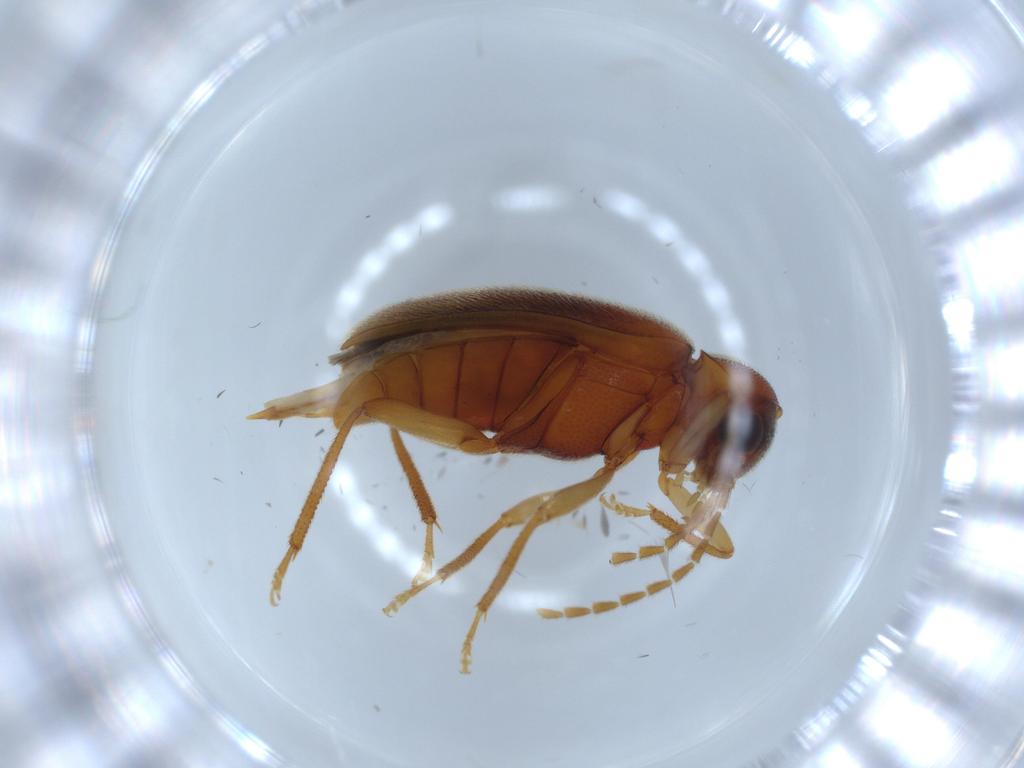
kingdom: Animalia
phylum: Arthropoda
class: Insecta
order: Coleoptera
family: Ptilodactylidae
